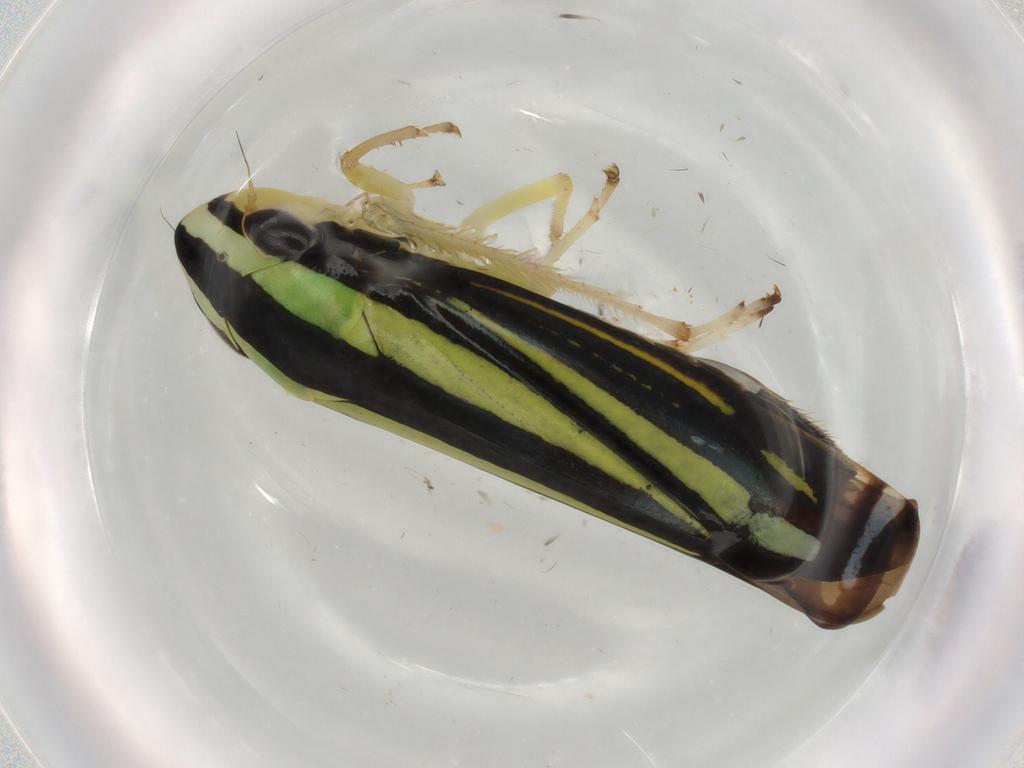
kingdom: Animalia
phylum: Arthropoda
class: Insecta
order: Hemiptera
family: Cicadellidae
